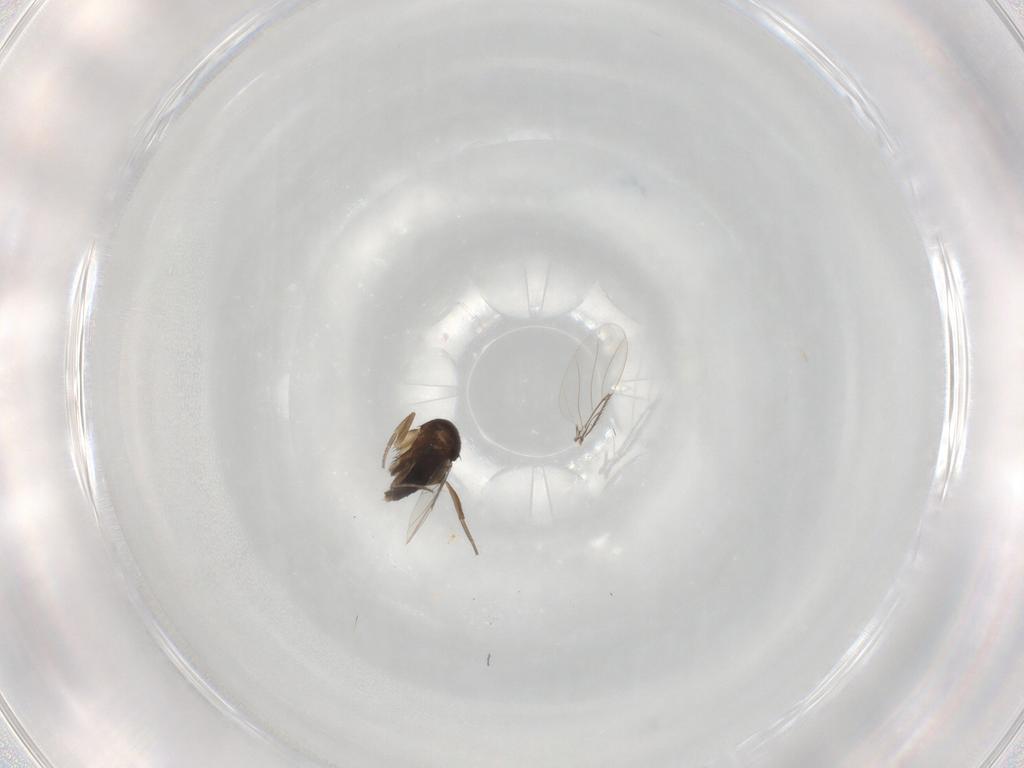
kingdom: Animalia
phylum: Arthropoda
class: Insecta
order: Diptera
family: Phoridae
